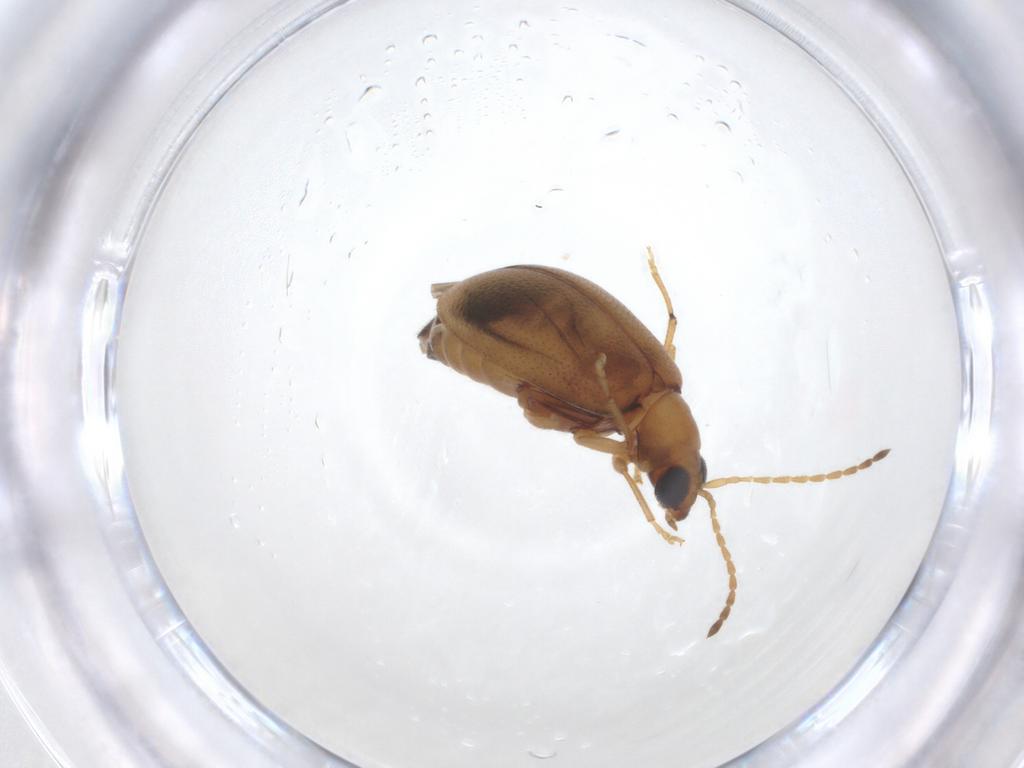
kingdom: Animalia
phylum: Arthropoda
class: Insecta
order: Coleoptera
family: Chrysomelidae
